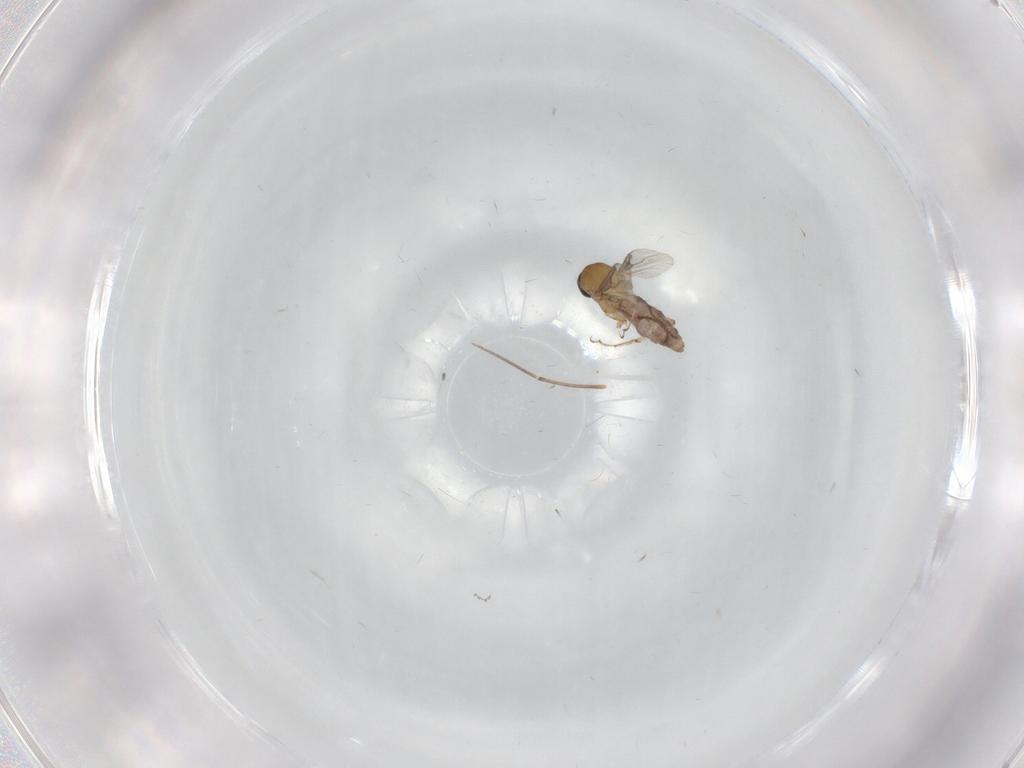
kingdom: Animalia
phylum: Arthropoda
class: Insecta
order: Diptera
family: Cecidomyiidae
